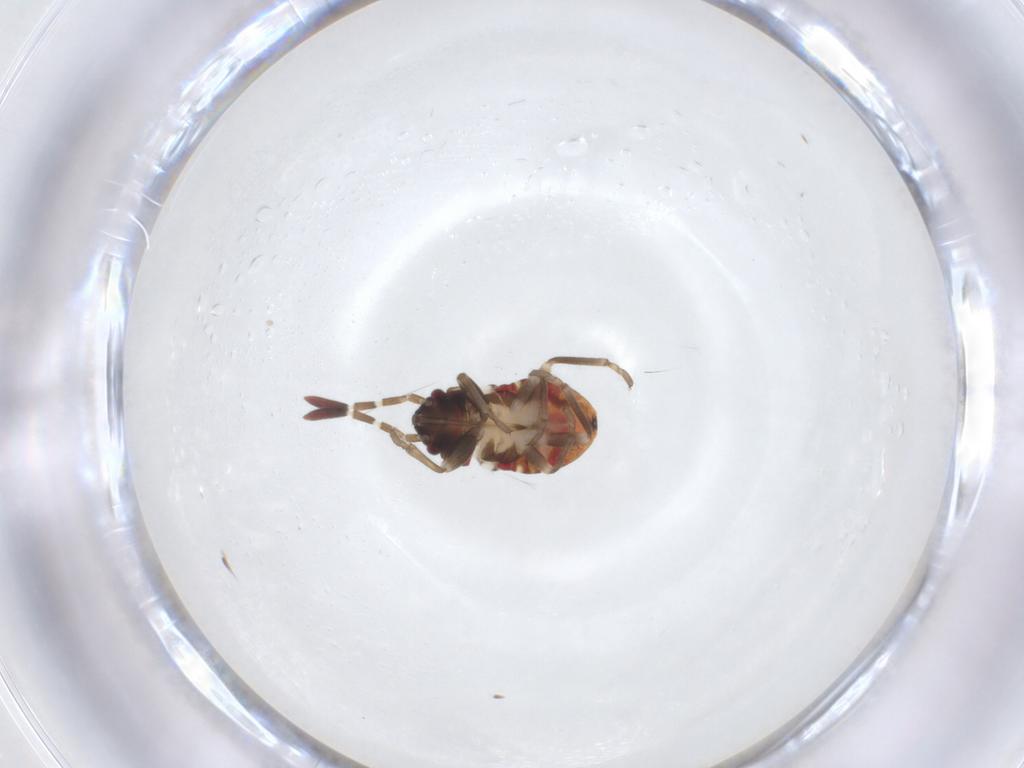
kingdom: Animalia
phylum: Arthropoda
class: Insecta
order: Hemiptera
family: Rhyparochromidae
